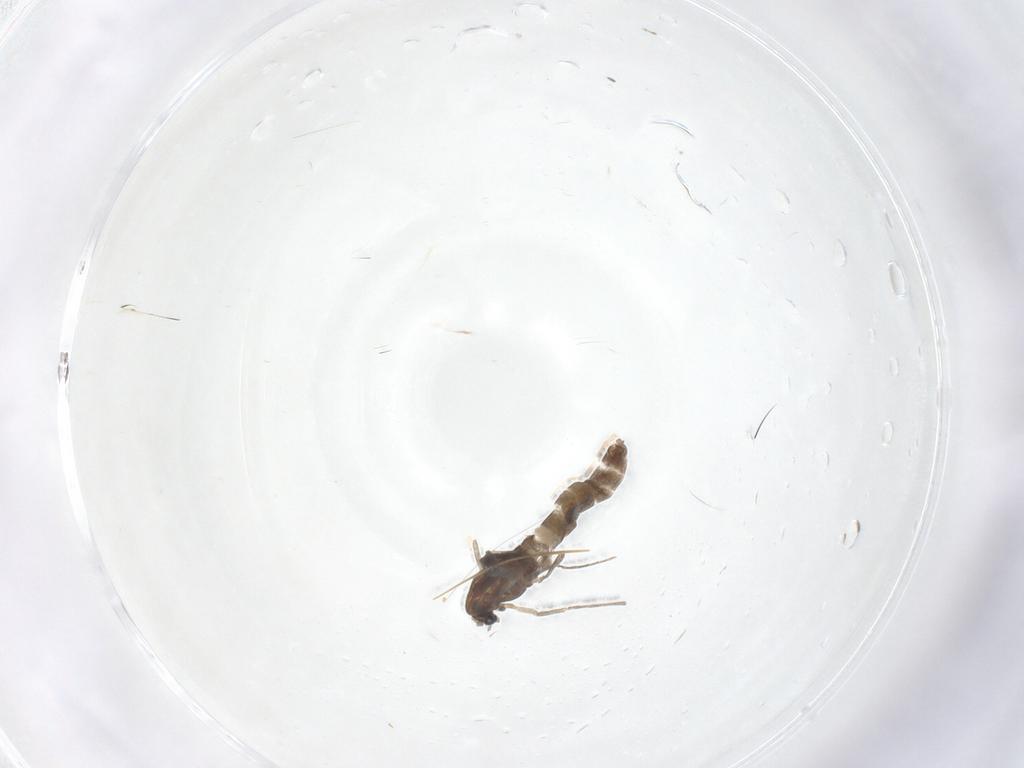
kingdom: Animalia
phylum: Arthropoda
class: Insecta
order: Diptera
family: Chironomidae
